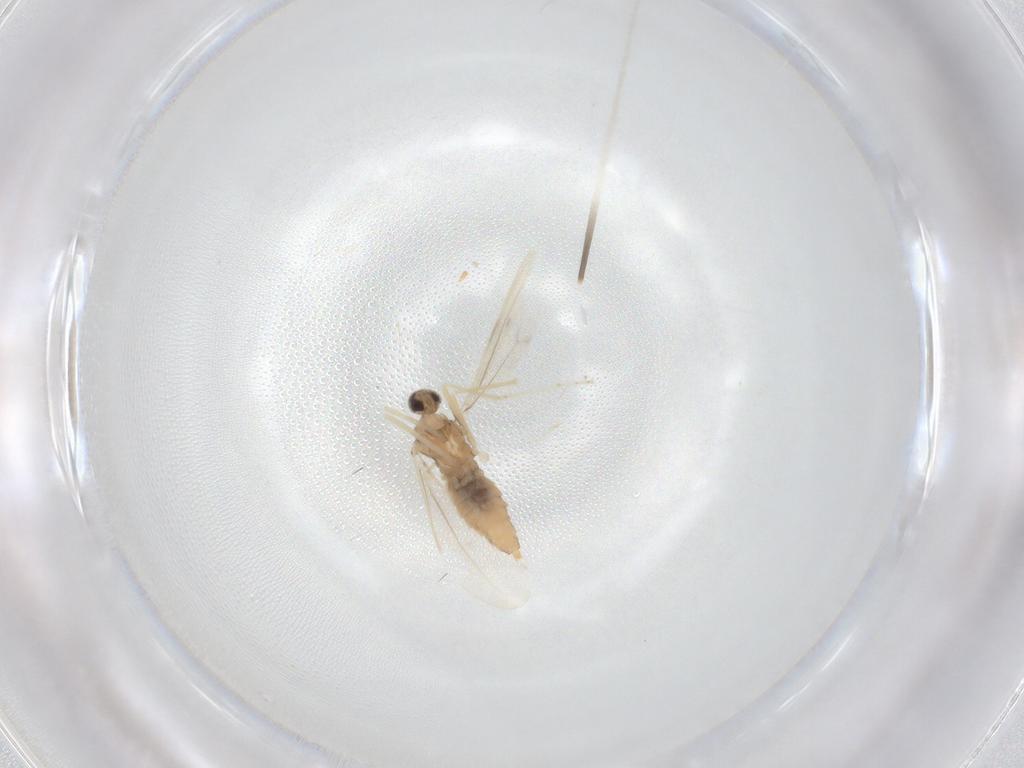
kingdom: Animalia
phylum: Arthropoda
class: Insecta
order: Diptera
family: Cecidomyiidae
